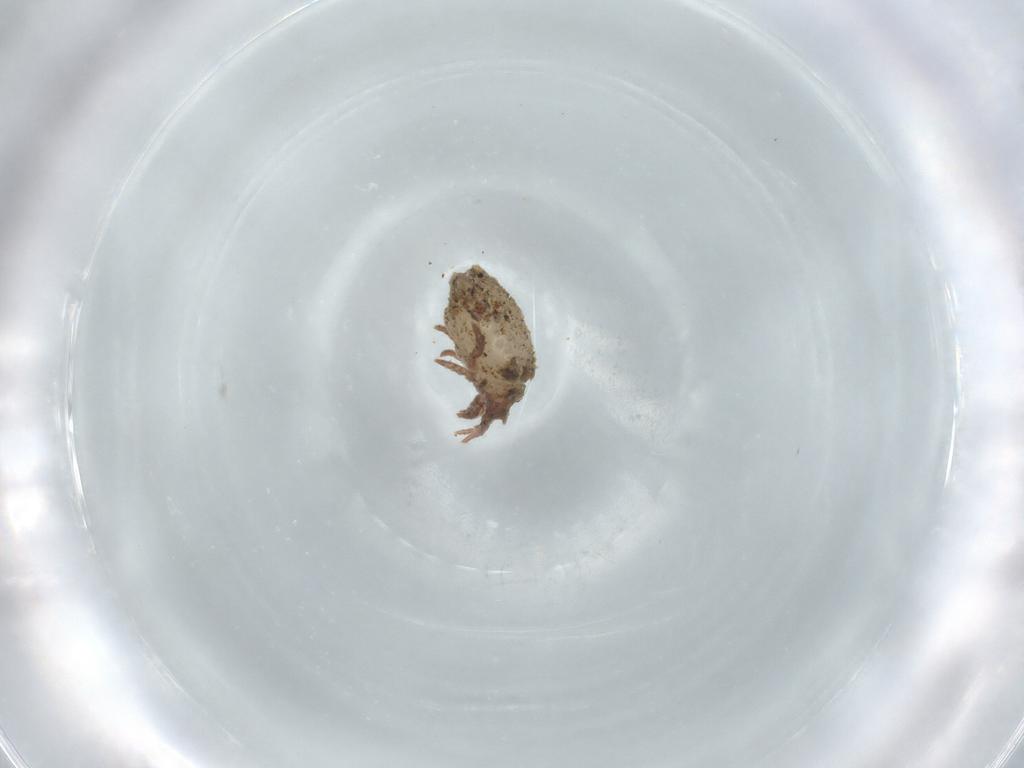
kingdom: Animalia
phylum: Arthropoda
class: Arachnida
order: Sarcoptiformes
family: Crotoniidae
